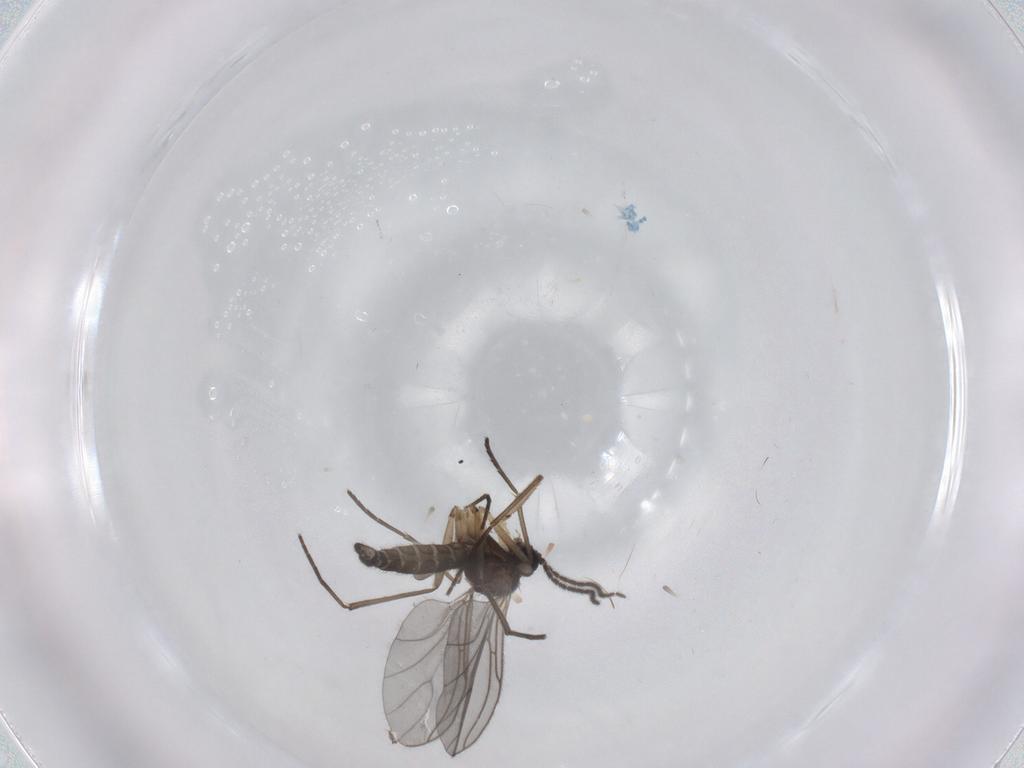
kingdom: Animalia
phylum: Arthropoda
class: Insecta
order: Diptera
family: Sciaridae
